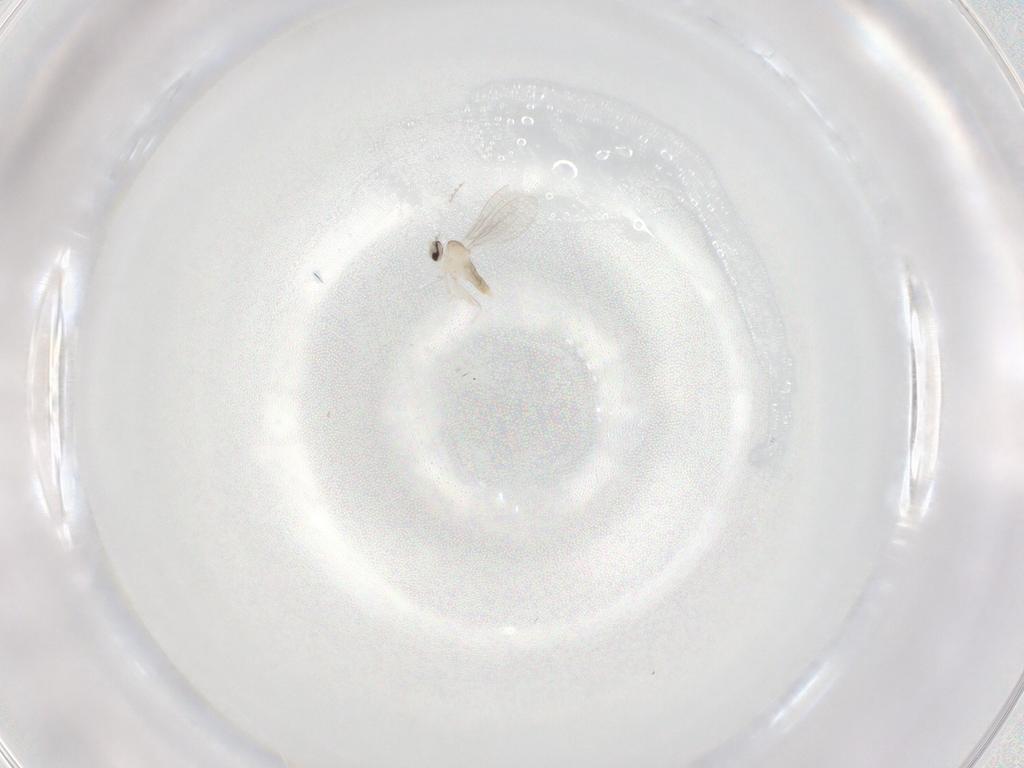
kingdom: Animalia
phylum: Arthropoda
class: Insecta
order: Diptera
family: Cecidomyiidae
